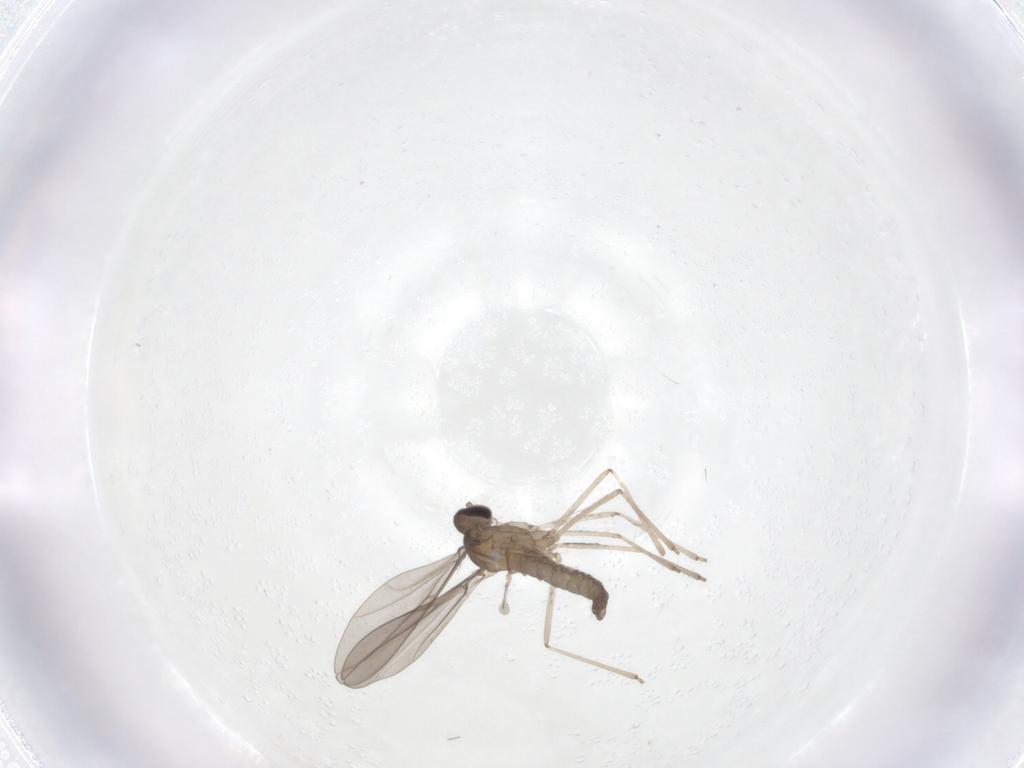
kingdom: Animalia
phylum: Arthropoda
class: Insecta
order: Diptera
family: Cecidomyiidae
